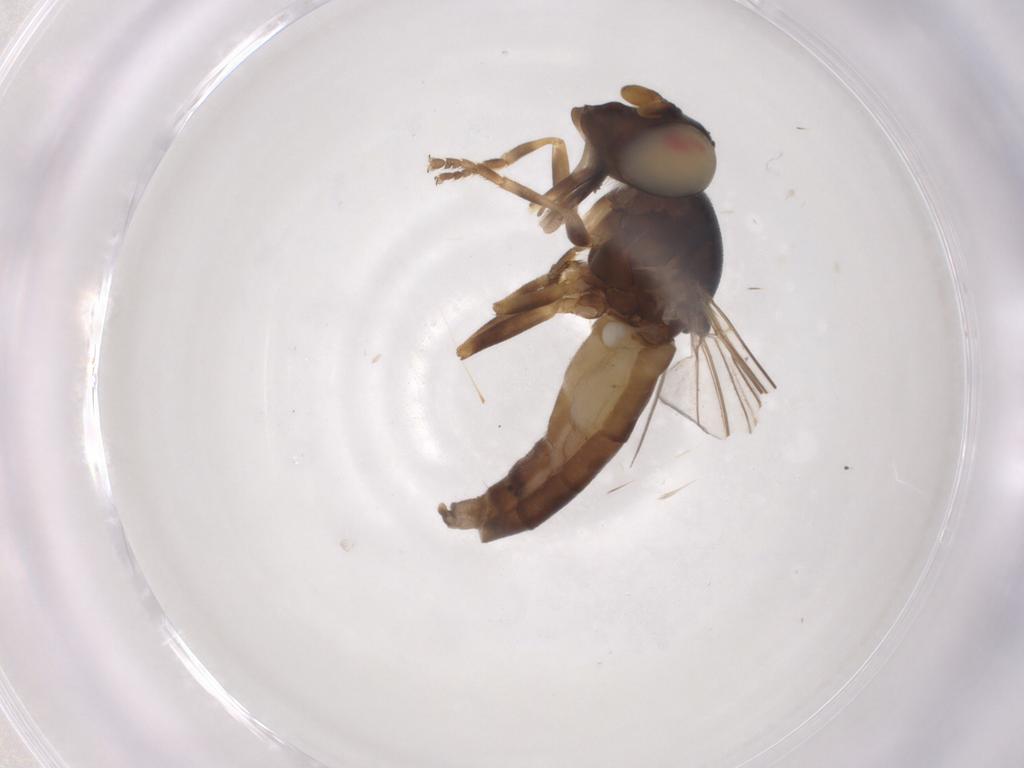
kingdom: Animalia
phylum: Arthropoda
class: Insecta
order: Diptera
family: Syrphidae
